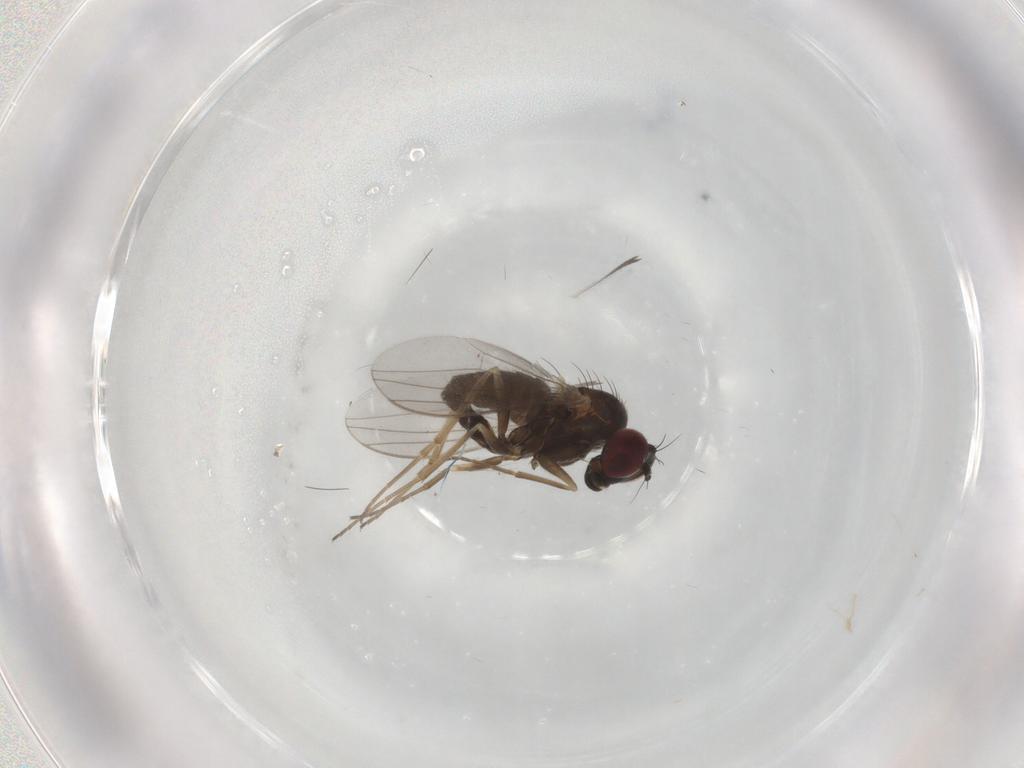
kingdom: Animalia
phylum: Arthropoda
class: Insecta
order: Diptera
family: Dolichopodidae
